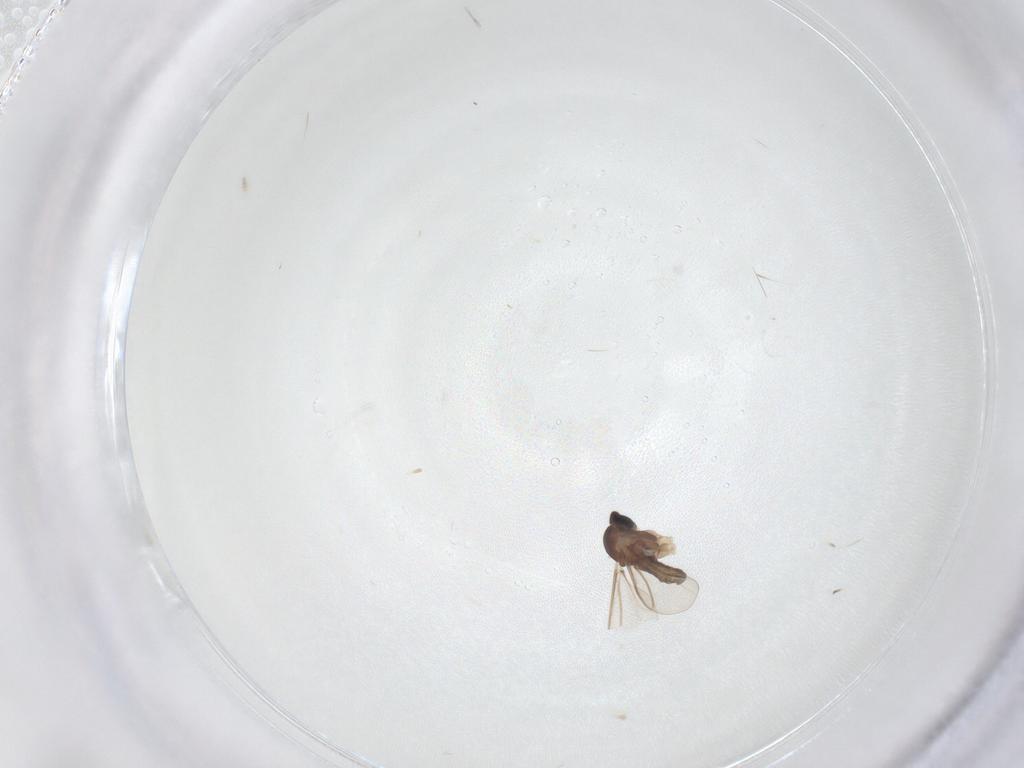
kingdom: Animalia
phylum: Arthropoda
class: Insecta
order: Diptera
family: Cecidomyiidae
